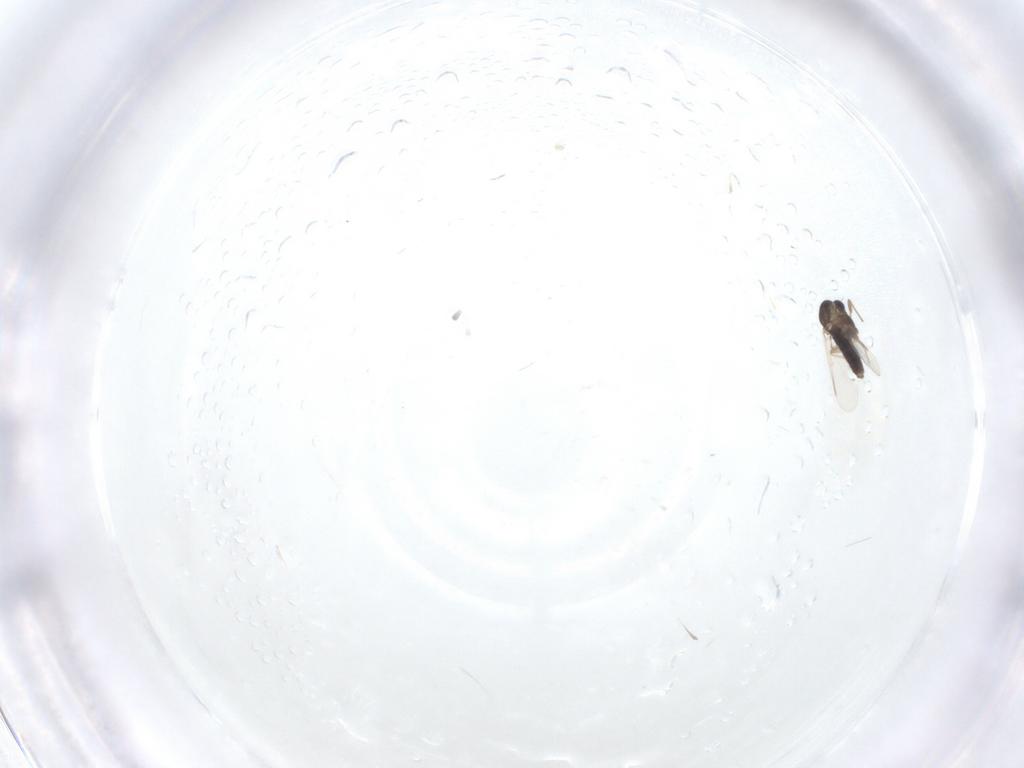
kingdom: Animalia
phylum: Arthropoda
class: Insecta
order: Diptera
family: Chironomidae
